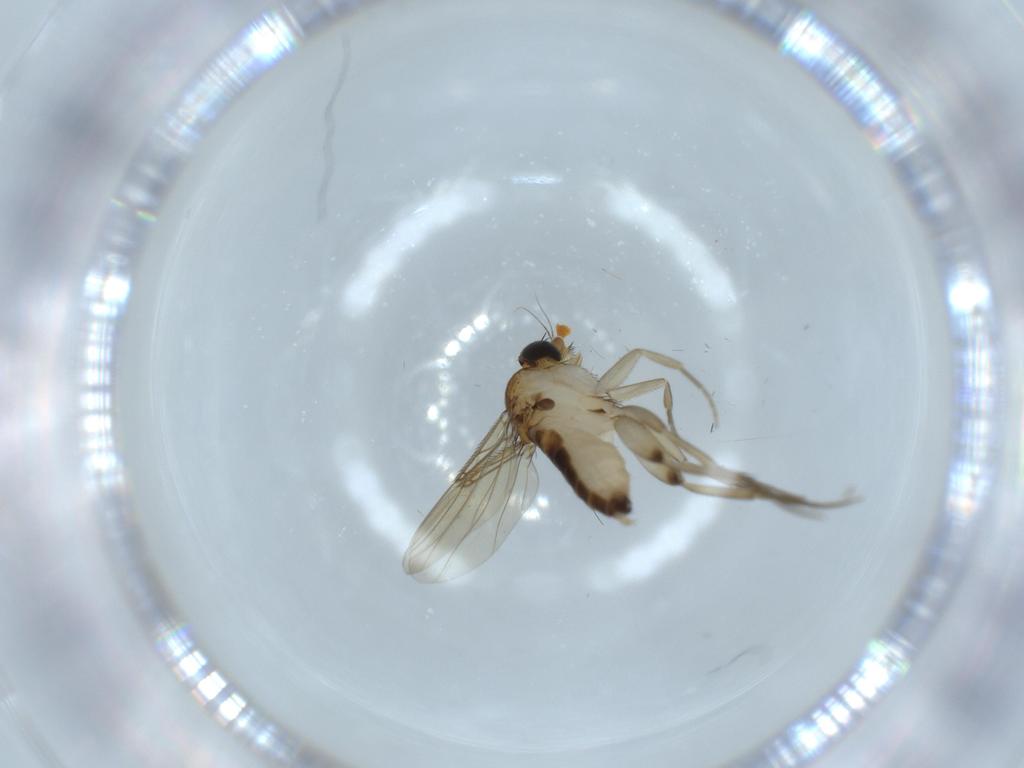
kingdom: Animalia
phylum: Arthropoda
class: Insecta
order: Diptera
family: Phoridae
